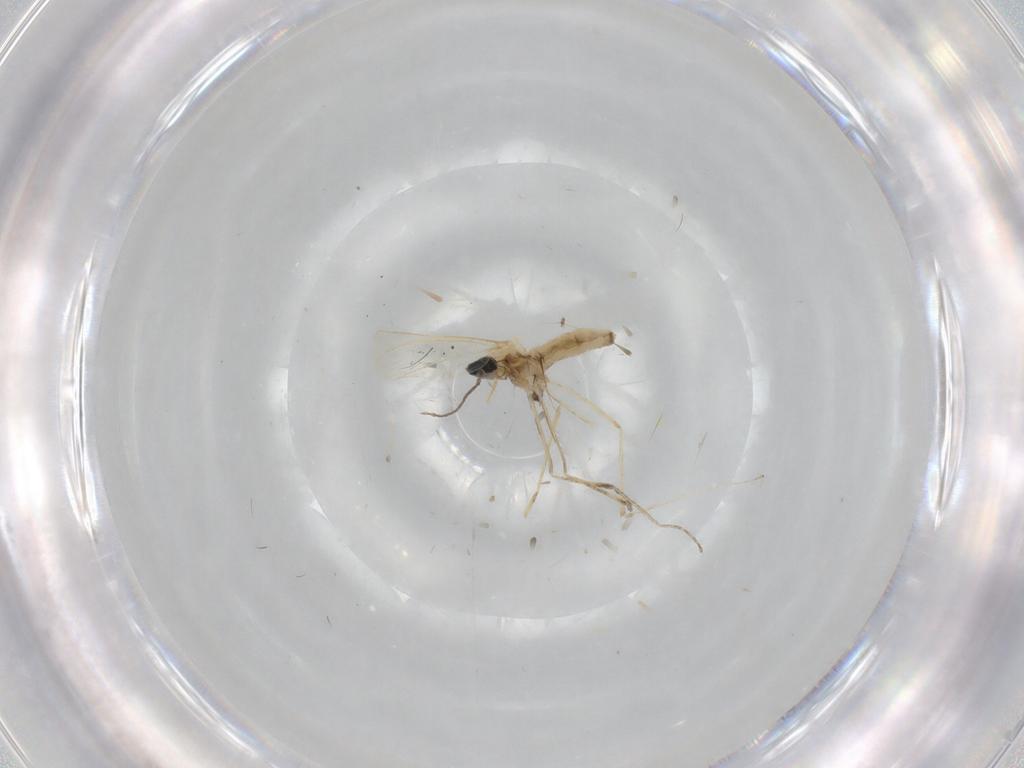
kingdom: Animalia
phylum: Arthropoda
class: Insecta
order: Diptera
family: Cecidomyiidae
